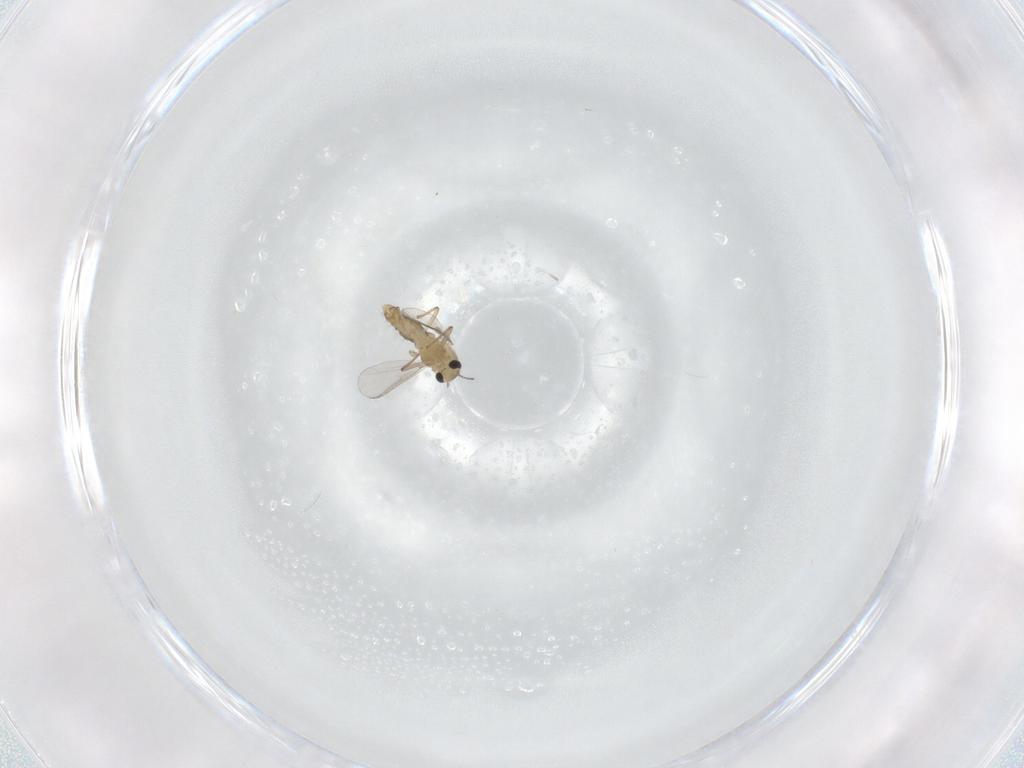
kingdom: Animalia
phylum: Arthropoda
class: Insecta
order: Diptera
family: Chironomidae
